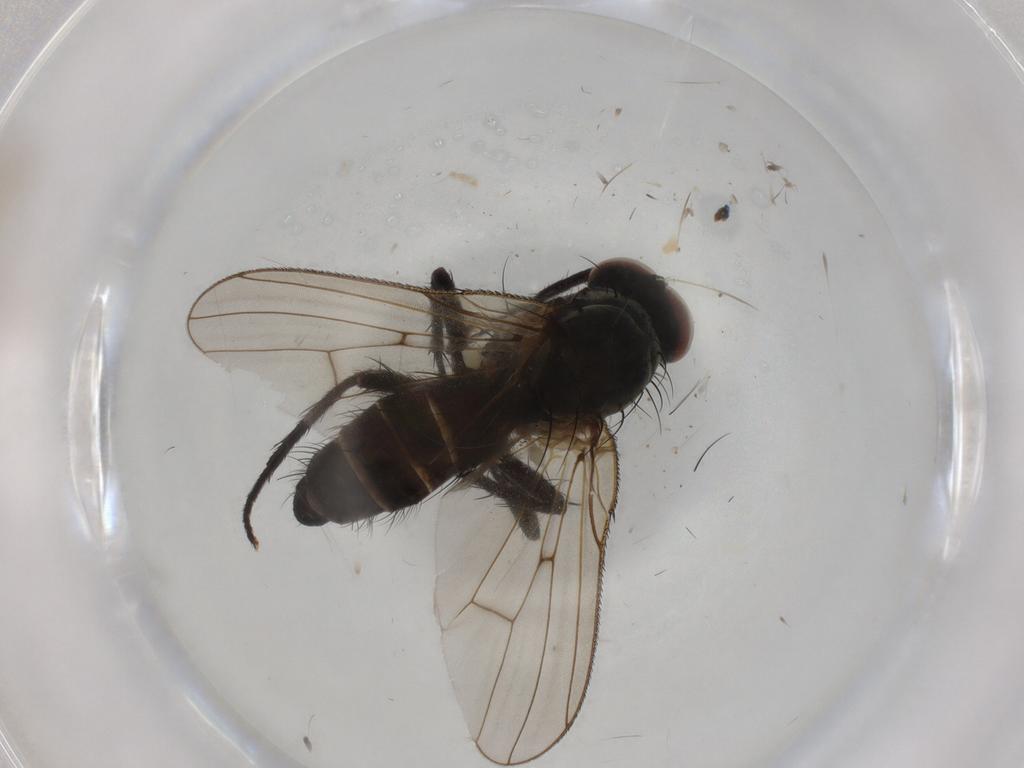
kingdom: Animalia
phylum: Arthropoda
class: Insecta
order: Diptera
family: Anthomyiidae
